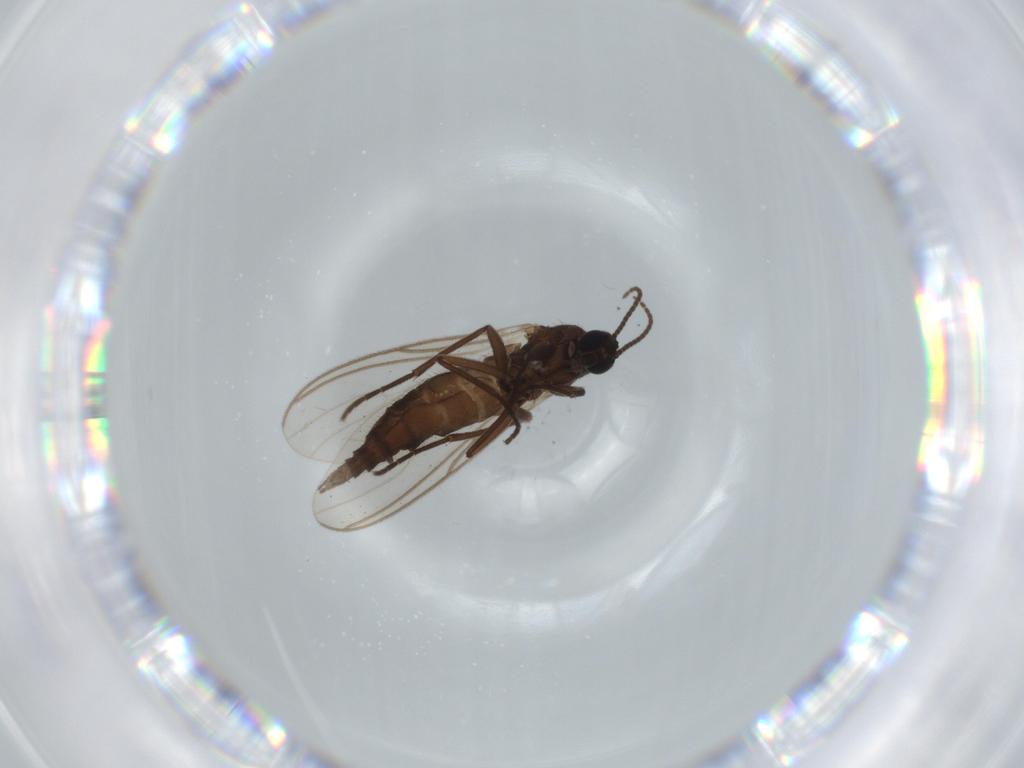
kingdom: Animalia
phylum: Arthropoda
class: Insecta
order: Diptera
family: Sciaridae
